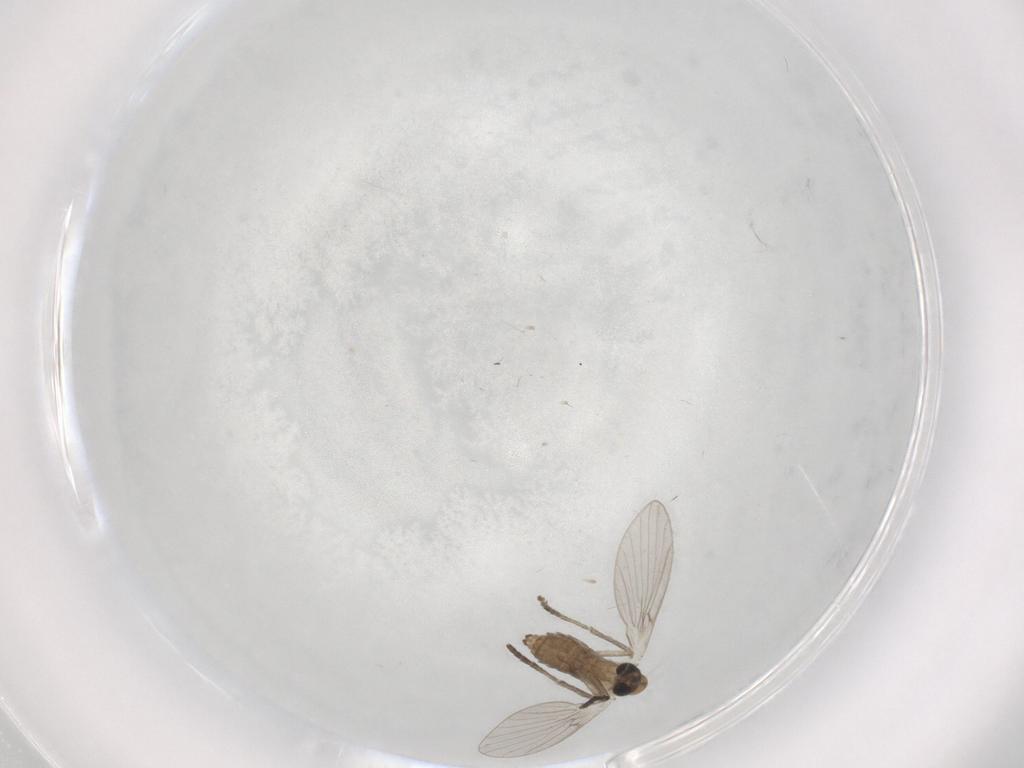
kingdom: Animalia
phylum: Arthropoda
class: Insecta
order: Diptera
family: Psychodidae
